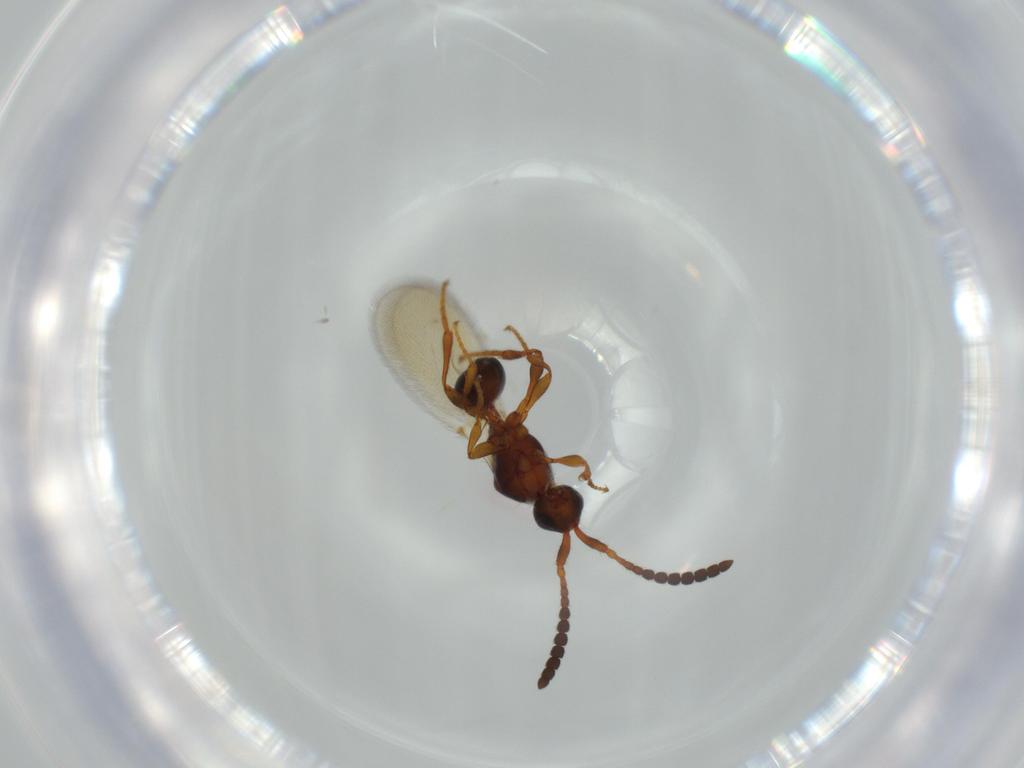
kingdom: Animalia
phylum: Arthropoda
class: Insecta
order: Hymenoptera
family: Diapriidae
